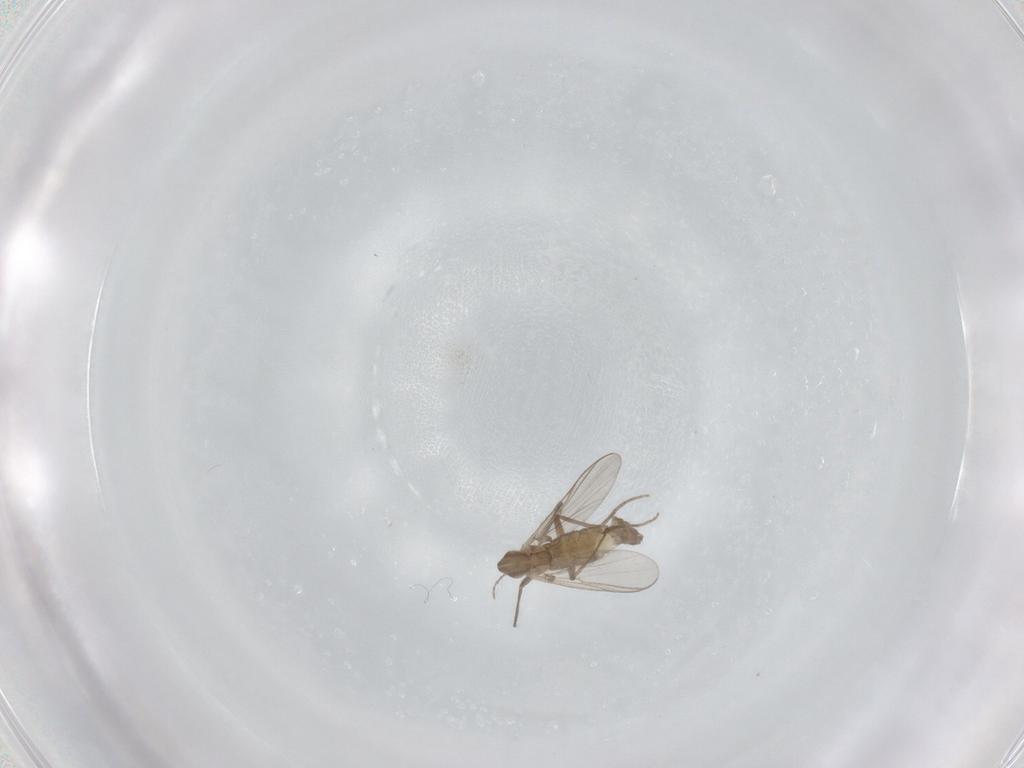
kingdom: Animalia
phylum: Arthropoda
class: Insecta
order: Diptera
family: Chironomidae
